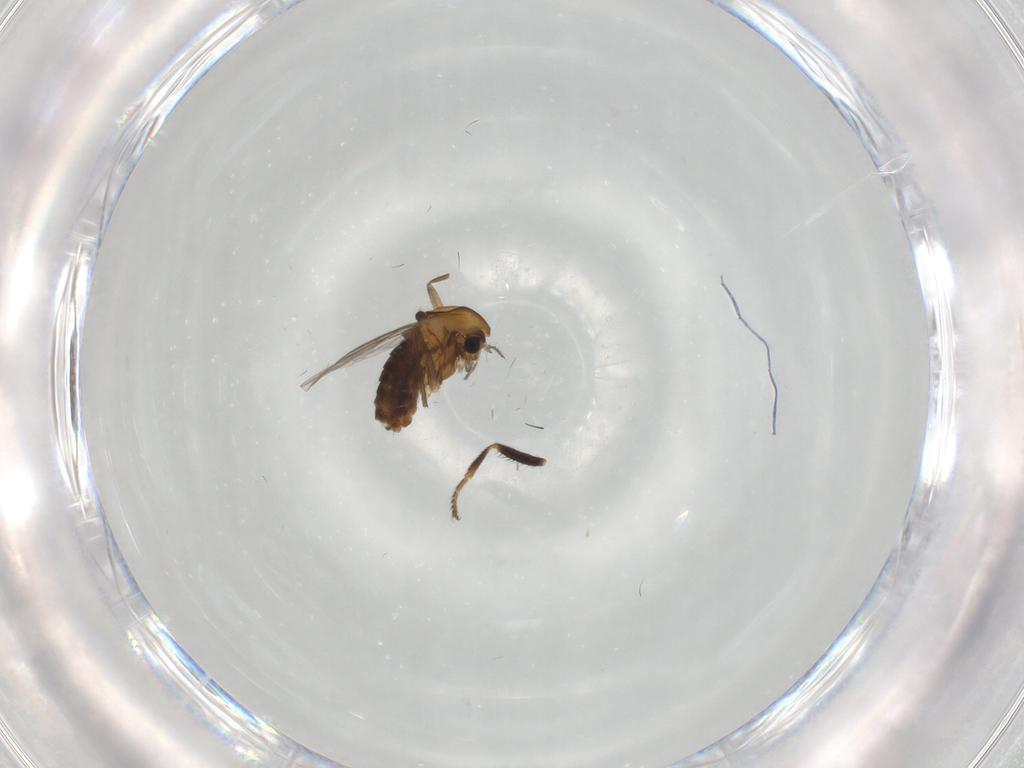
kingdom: Animalia
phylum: Arthropoda
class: Insecta
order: Diptera
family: Chironomidae
